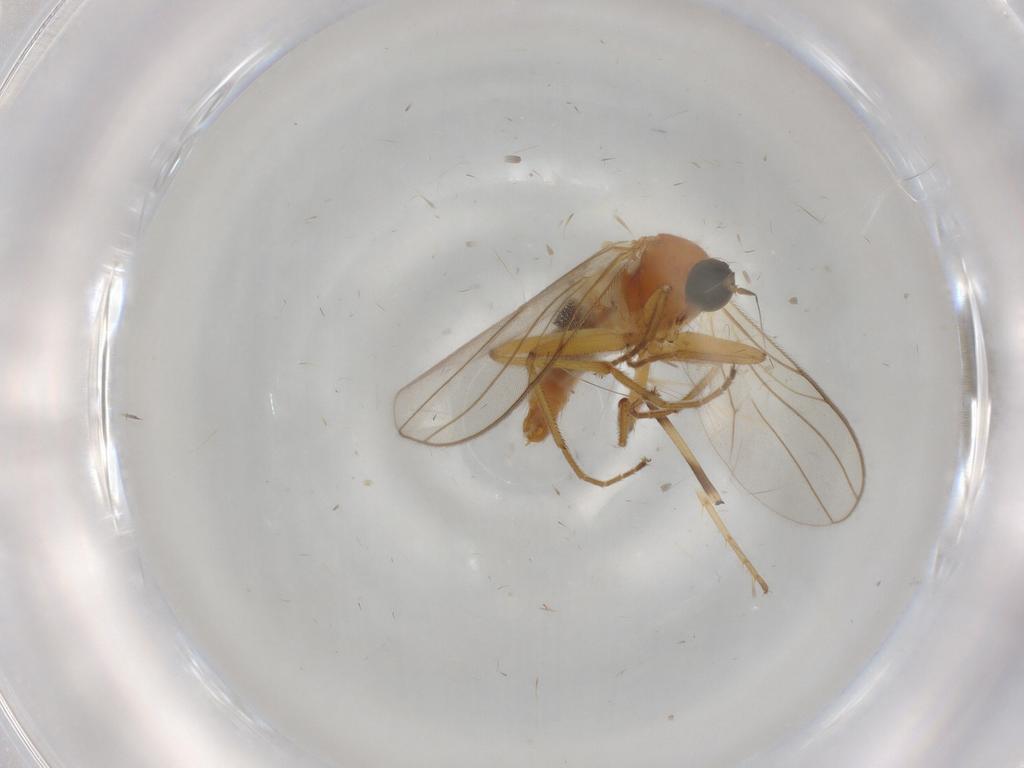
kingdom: Animalia
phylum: Arthropoda
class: Insecta
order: Diptera
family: Hybotidae
